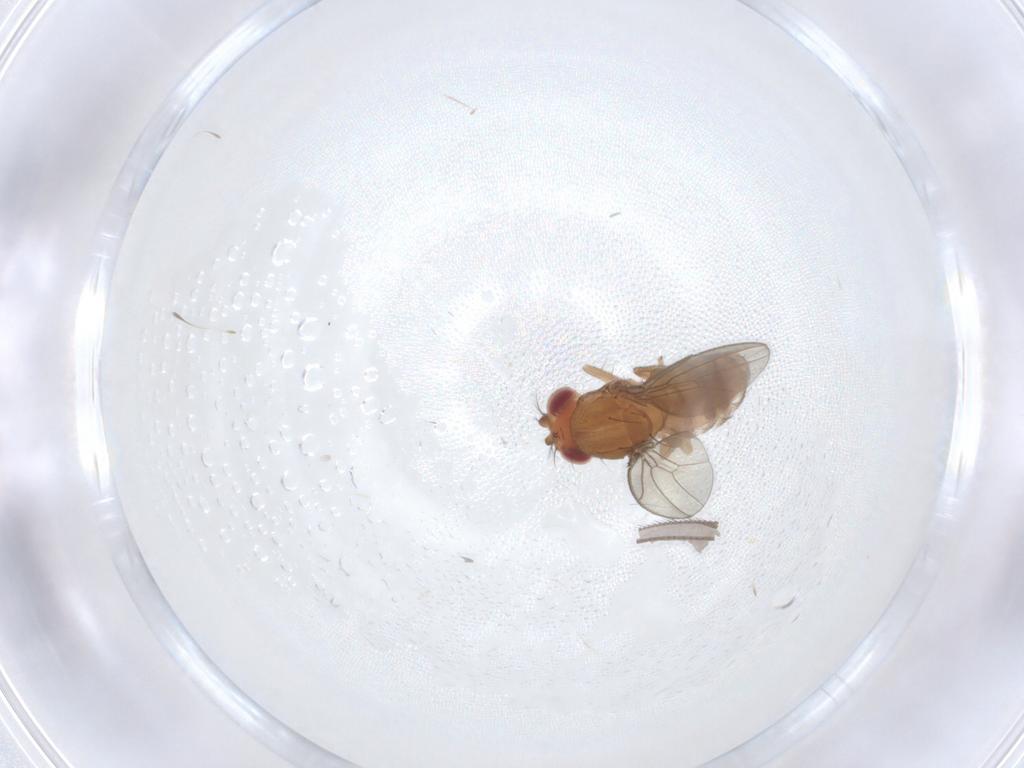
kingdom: Animalia
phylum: Arthropoda
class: Insecta
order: Diptera
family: Drosophilidae
